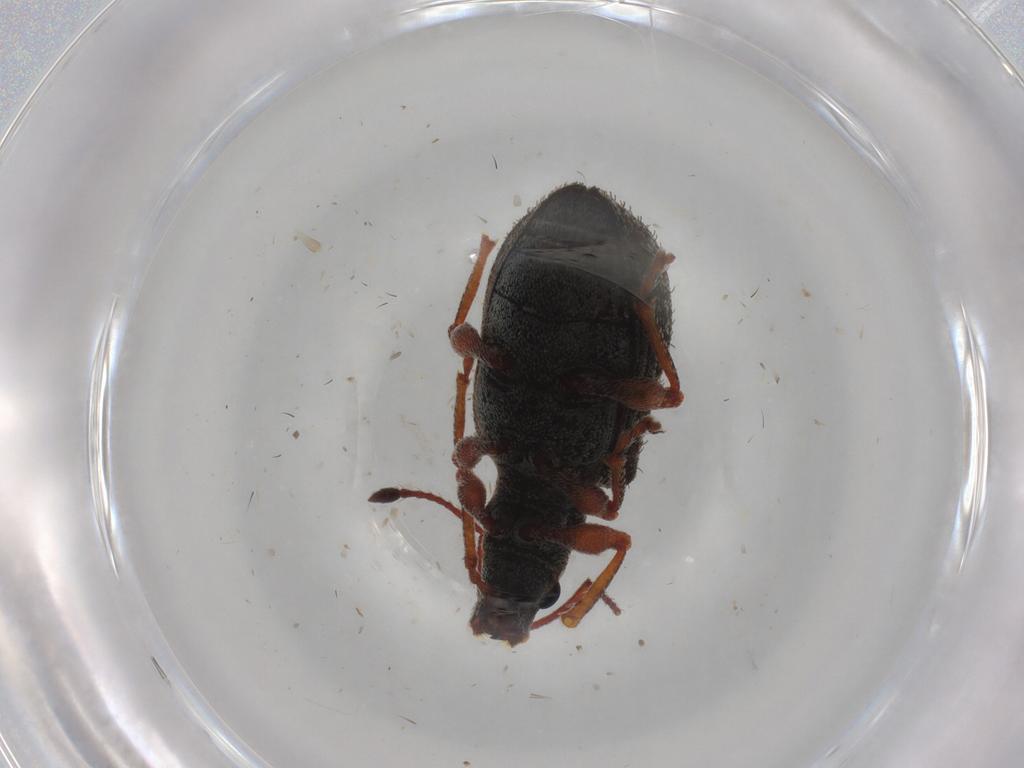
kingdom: Animalia
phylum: Arthropoda
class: Insecta
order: Coleoptera
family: Curculionidae
